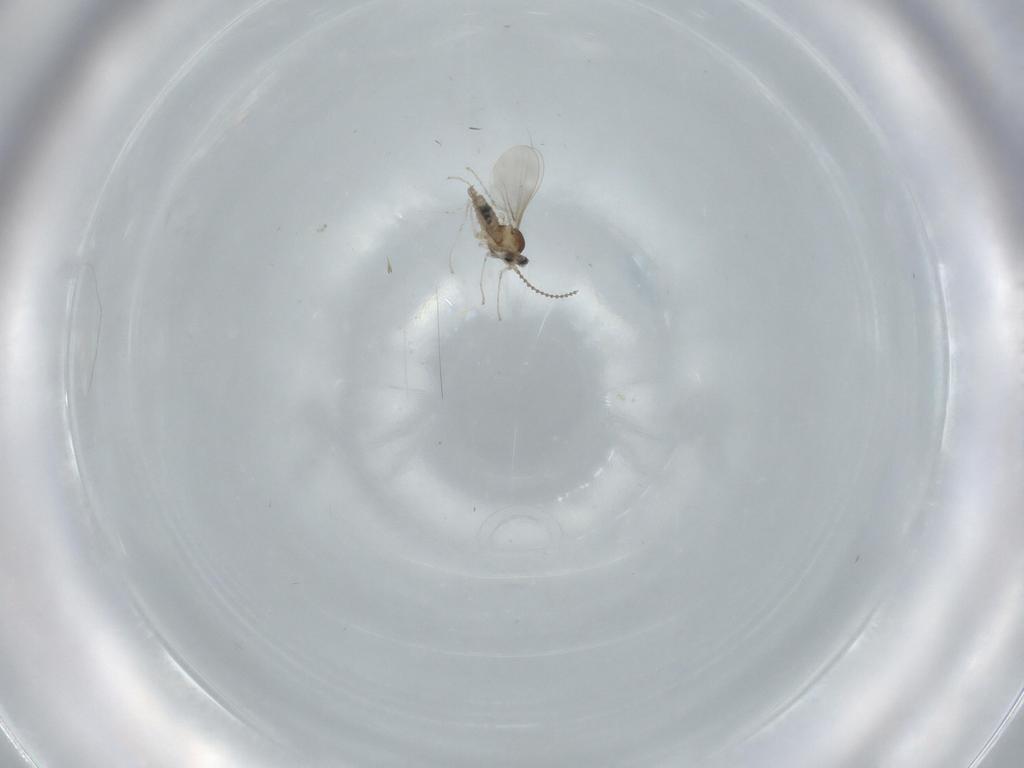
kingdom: Animalia
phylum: Arthropoda
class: Insecta
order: Diptera
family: Cecidomyiidae
